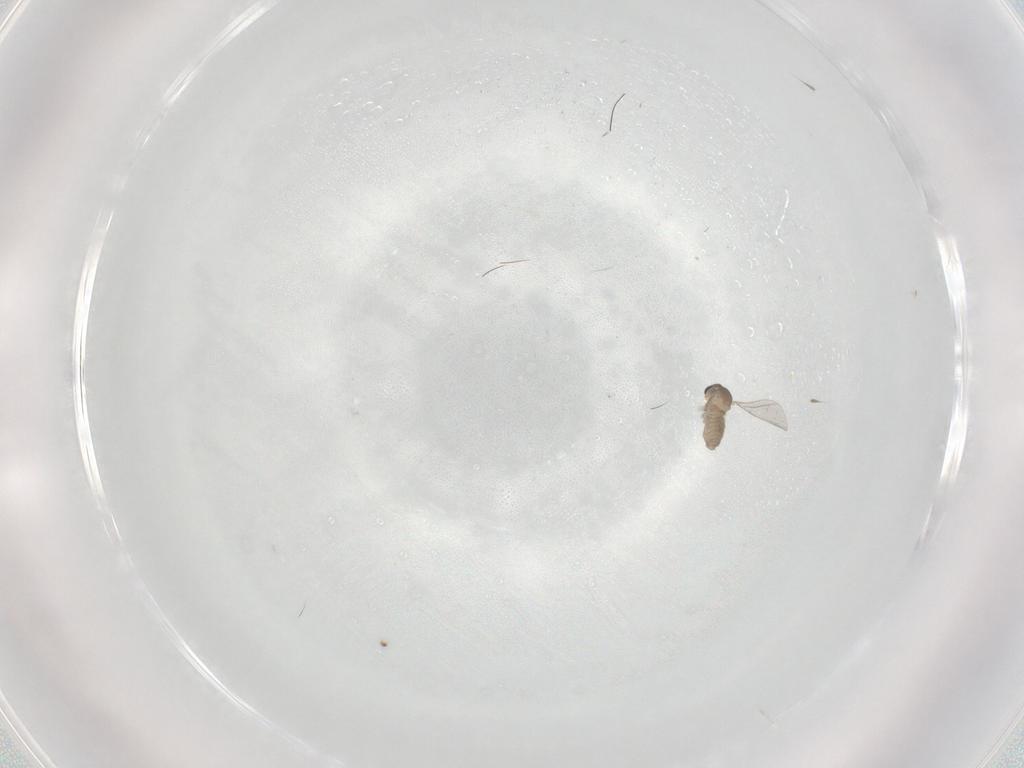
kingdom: Animalia
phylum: Arthropoda
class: Insecta
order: Diptera
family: Cecidomyiidae
